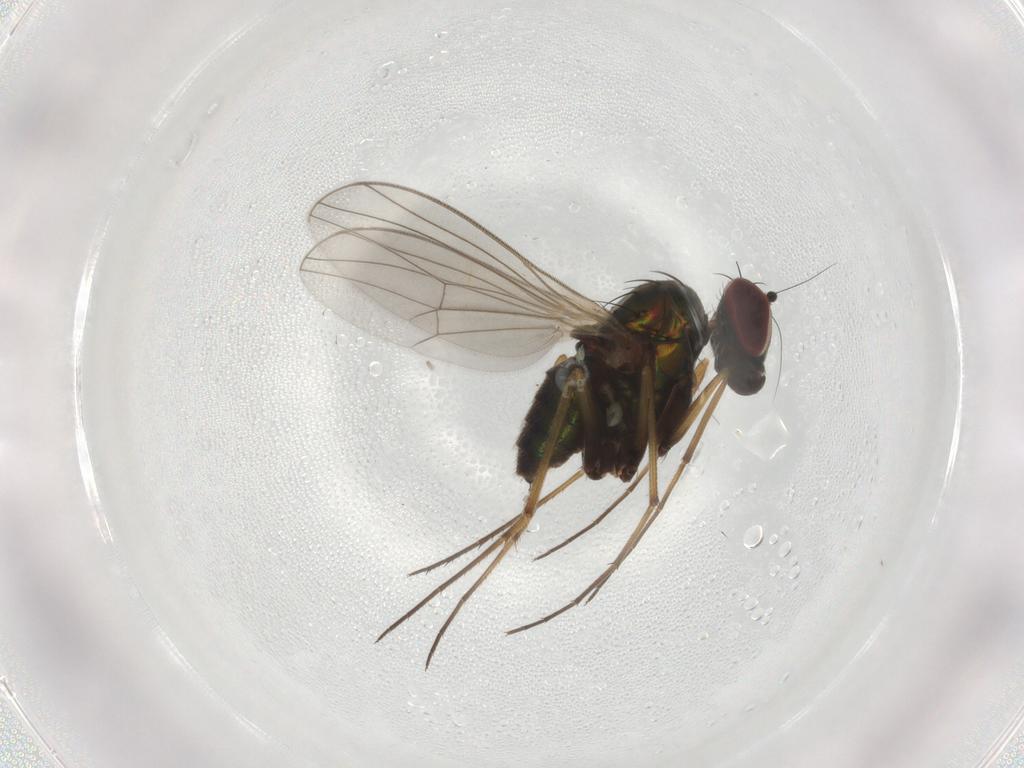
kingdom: Animalia
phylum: Arthropoda
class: Insecta
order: Diptera
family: Dolichopodidae
